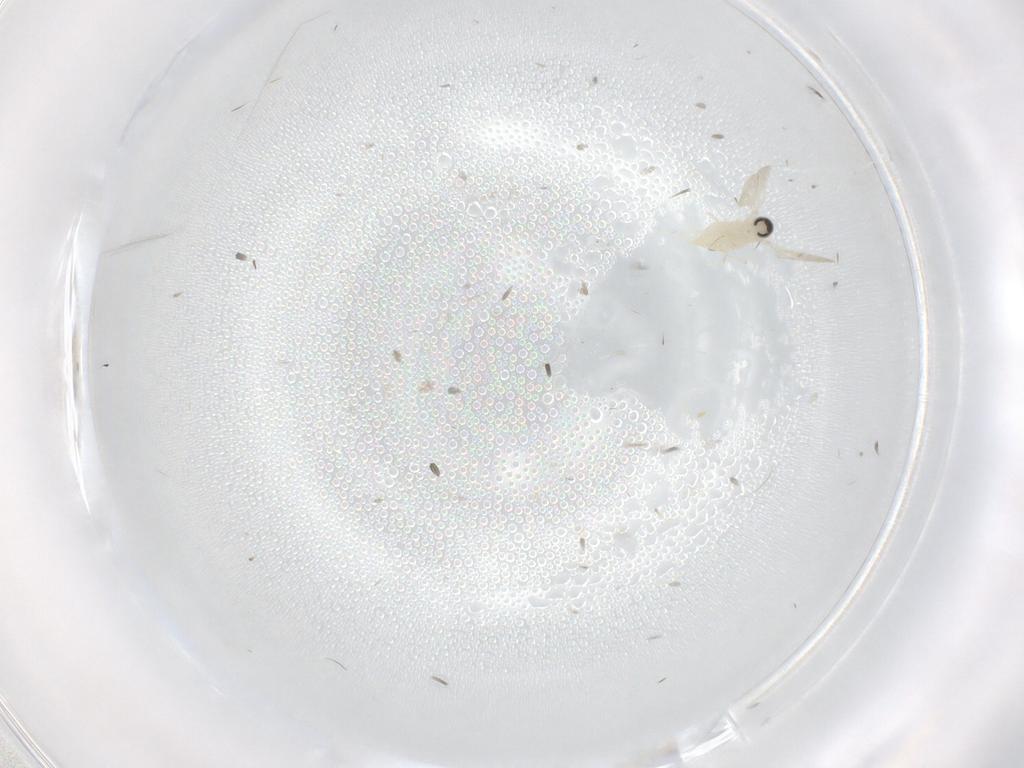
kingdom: Animalia
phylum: Arthropoda
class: Insecta
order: Diptera
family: Cecidomyiidae
